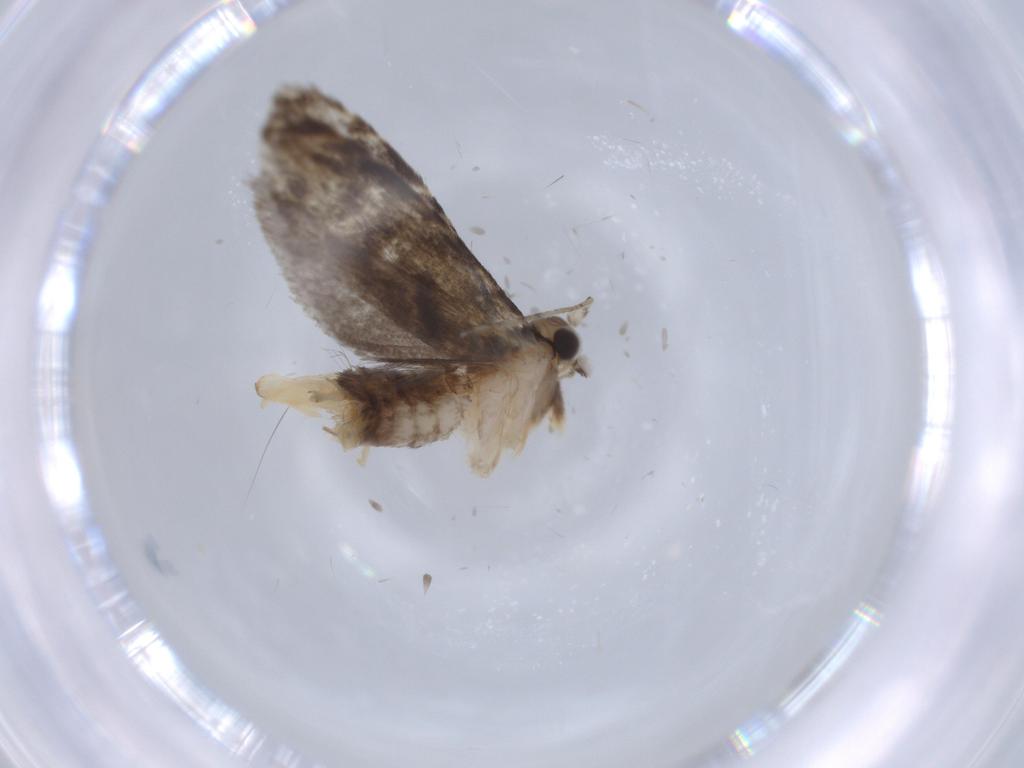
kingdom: Animalia
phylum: Arthropoda
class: Insecta
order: Lepidoptera
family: Tineidae
